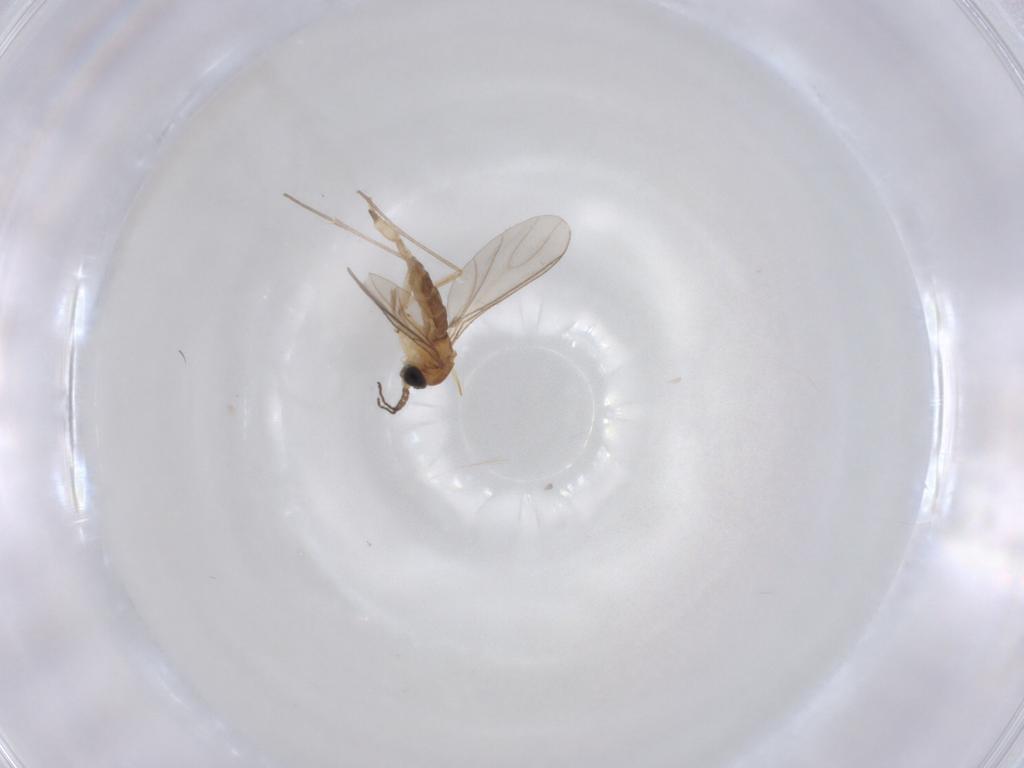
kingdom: Animalia
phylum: Arthropoda
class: Insecta
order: Diptera
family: Sciaridae
